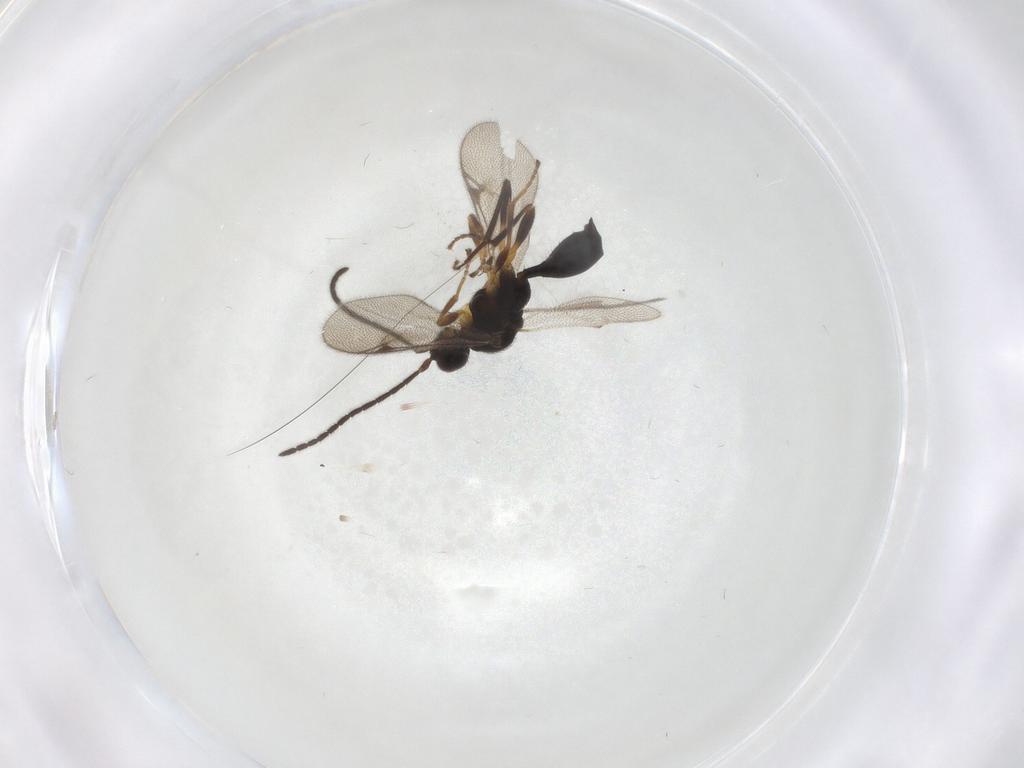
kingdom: Animalia
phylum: Arthropoda
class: Insecta
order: Hymenoptera
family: Proctotrupidae
